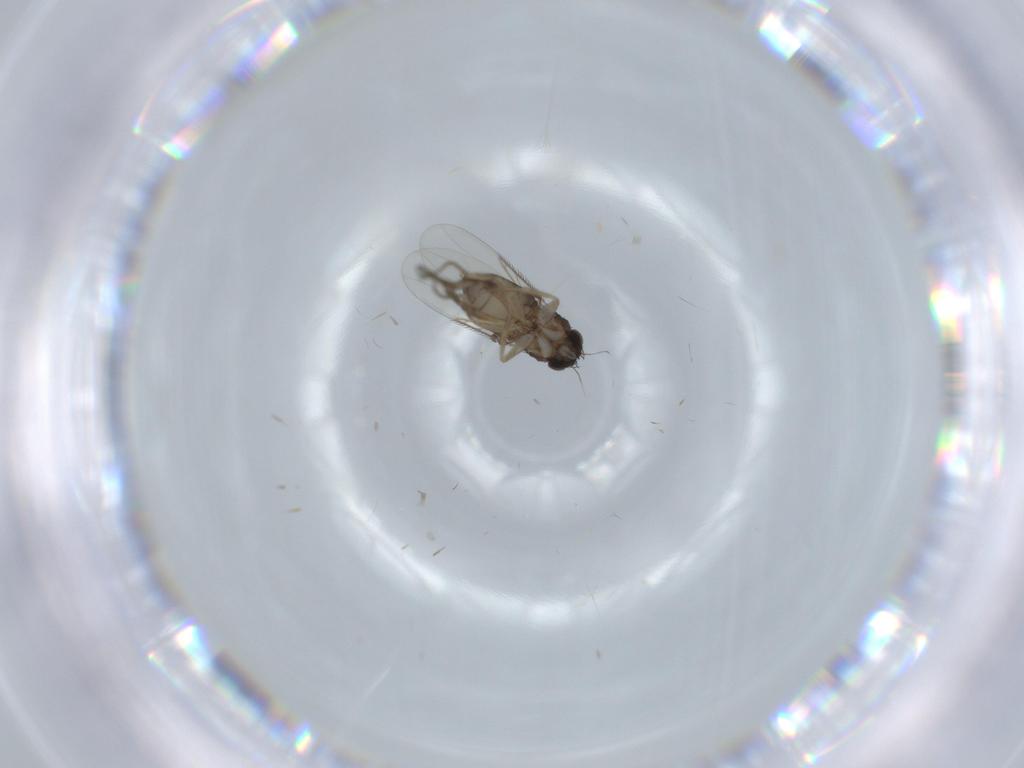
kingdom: Animalia
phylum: Arthropoda
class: Insecta
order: Diptera
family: Phoridae
